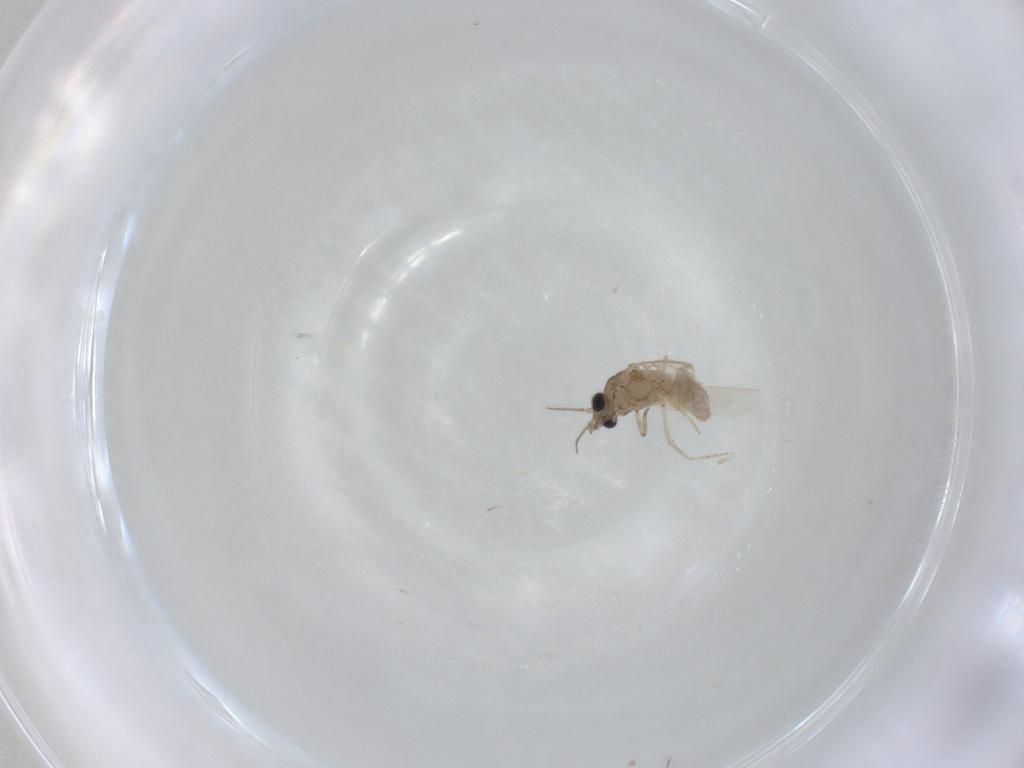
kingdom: Animalia
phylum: Arthropoda
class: Insecta
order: Diptera
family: Ceratopogonidae
